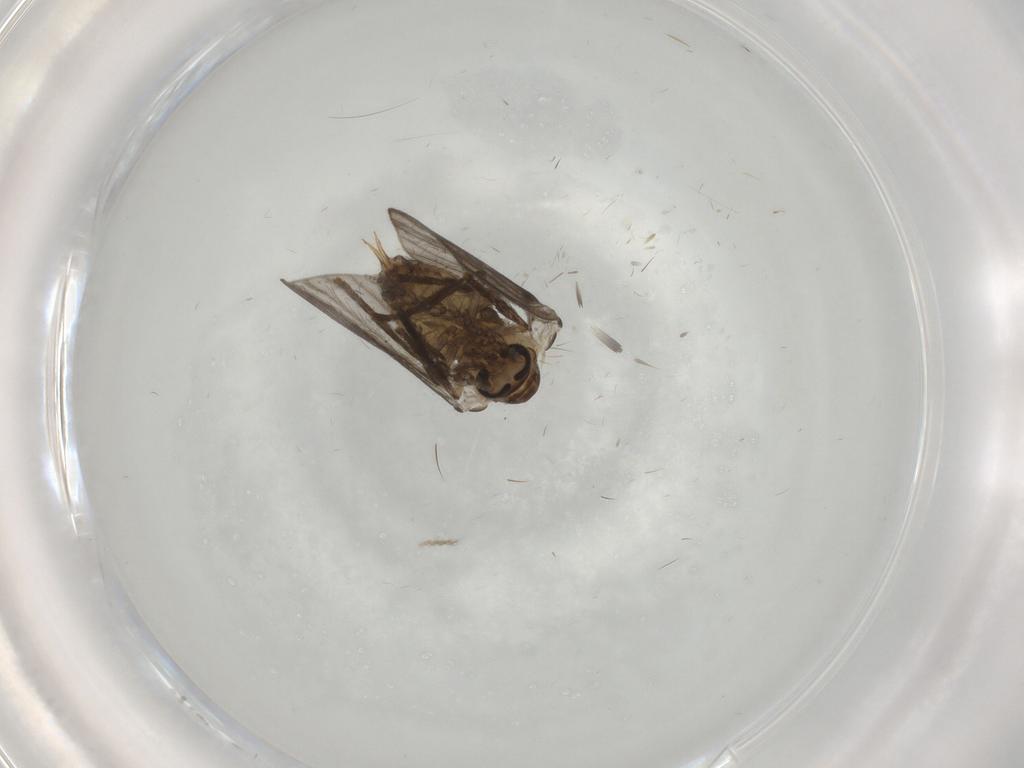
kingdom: Animalia
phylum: Arthropoda
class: Insecta
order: Diptera
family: Psychodidae
